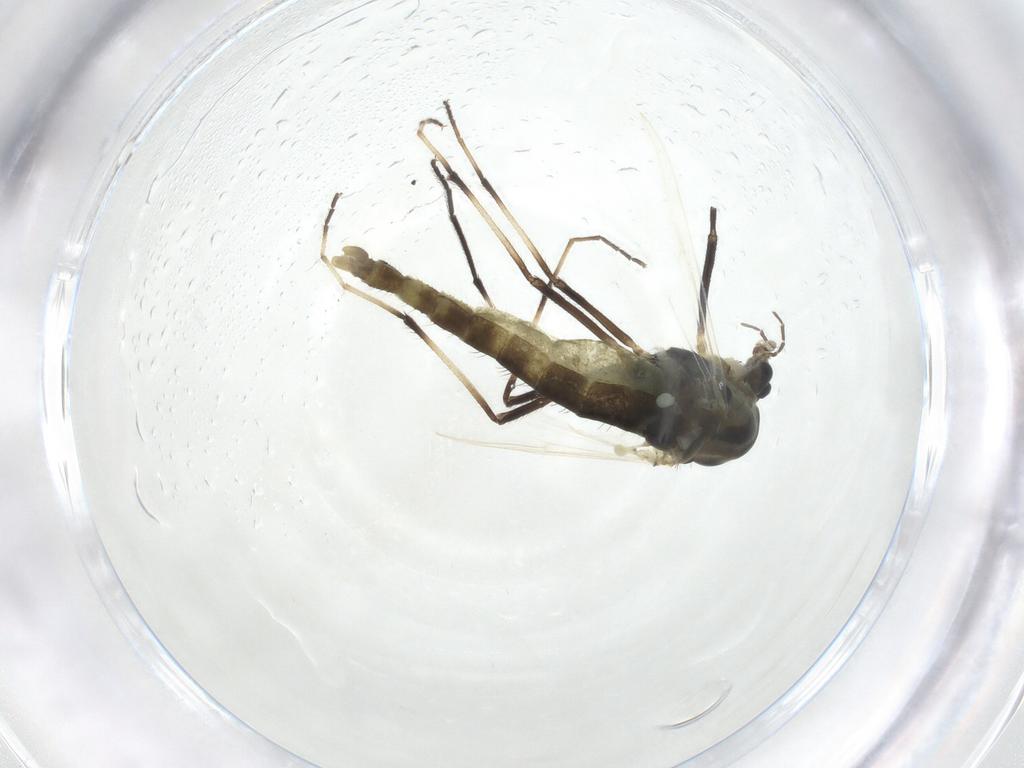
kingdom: Animalia
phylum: Arthropoda
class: Insecta
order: Diptera
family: Chironomidae
